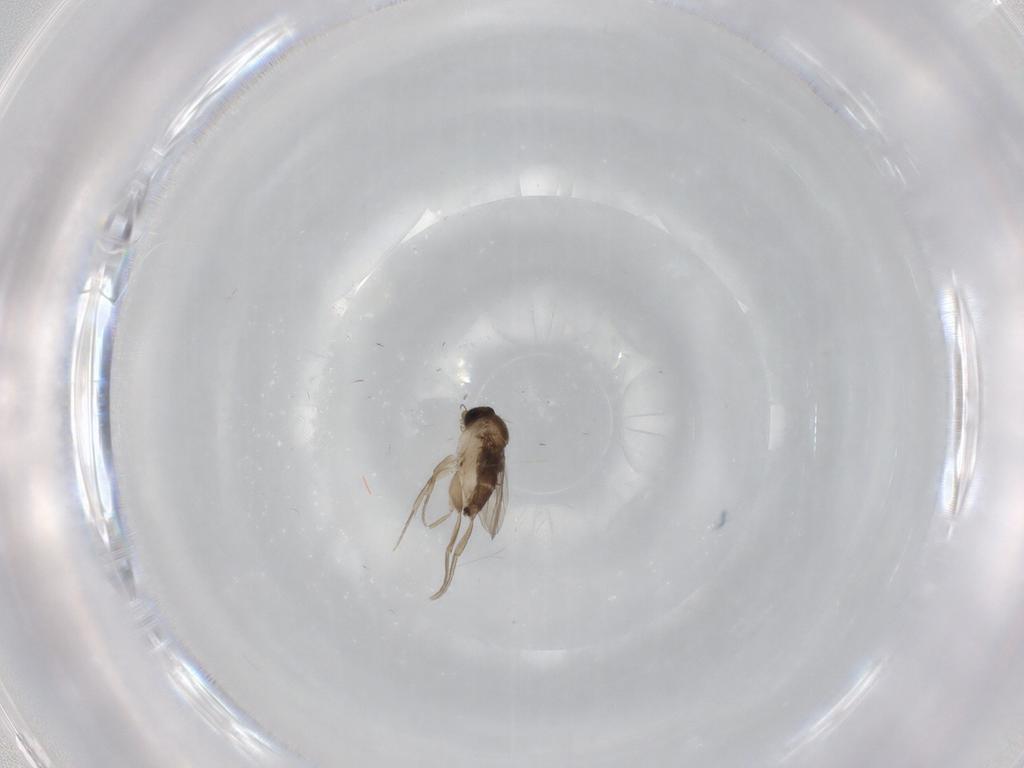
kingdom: Animalia
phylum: Arthropoda
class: Insecta
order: Diptera
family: Phoridae
